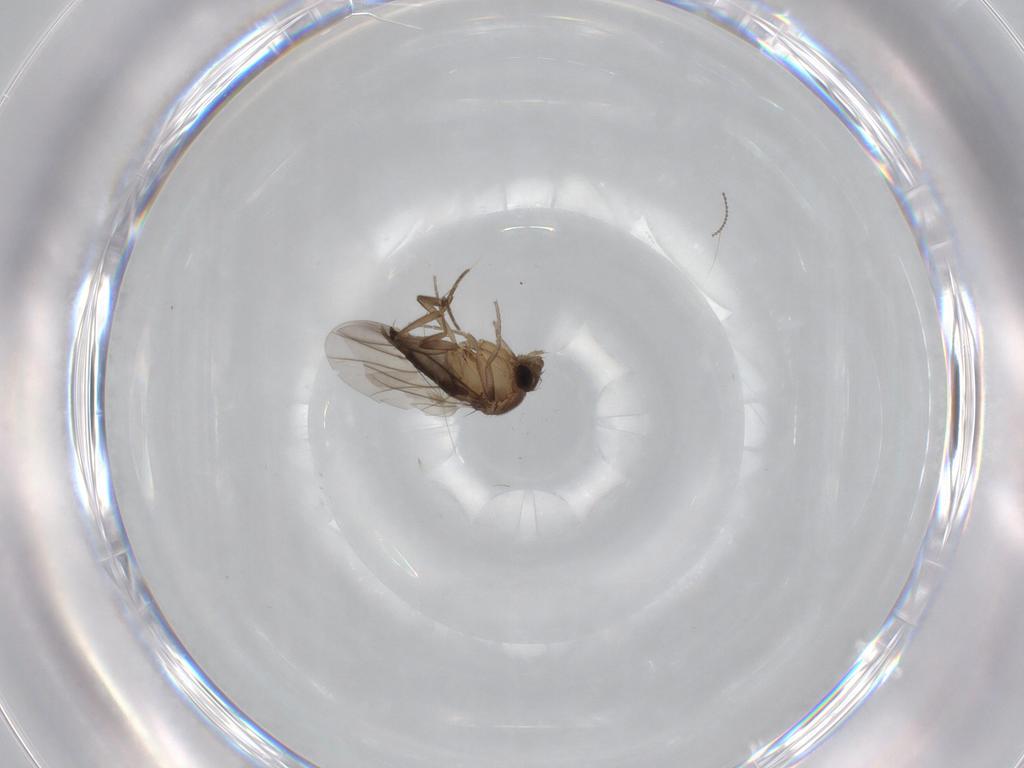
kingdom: Animalia
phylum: Arthropoda
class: Insecta
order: Diptera
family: Phoridae
